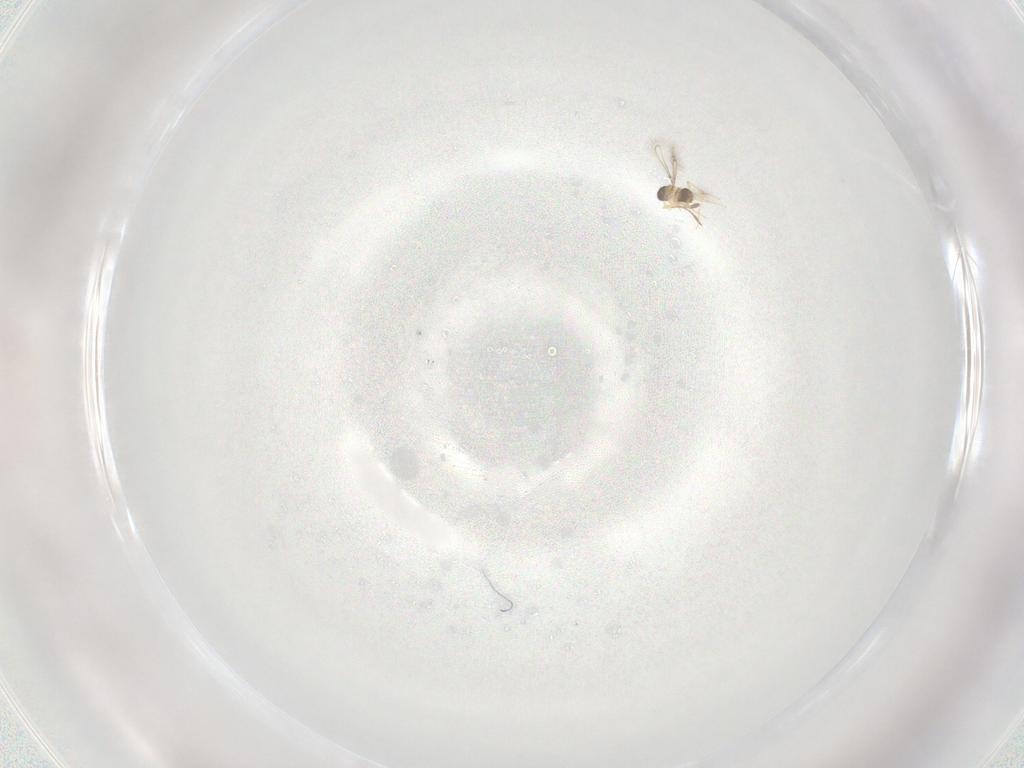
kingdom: Animalia
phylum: Arthropoda
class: Insecta
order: Hymenoptera
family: Mymaridae
